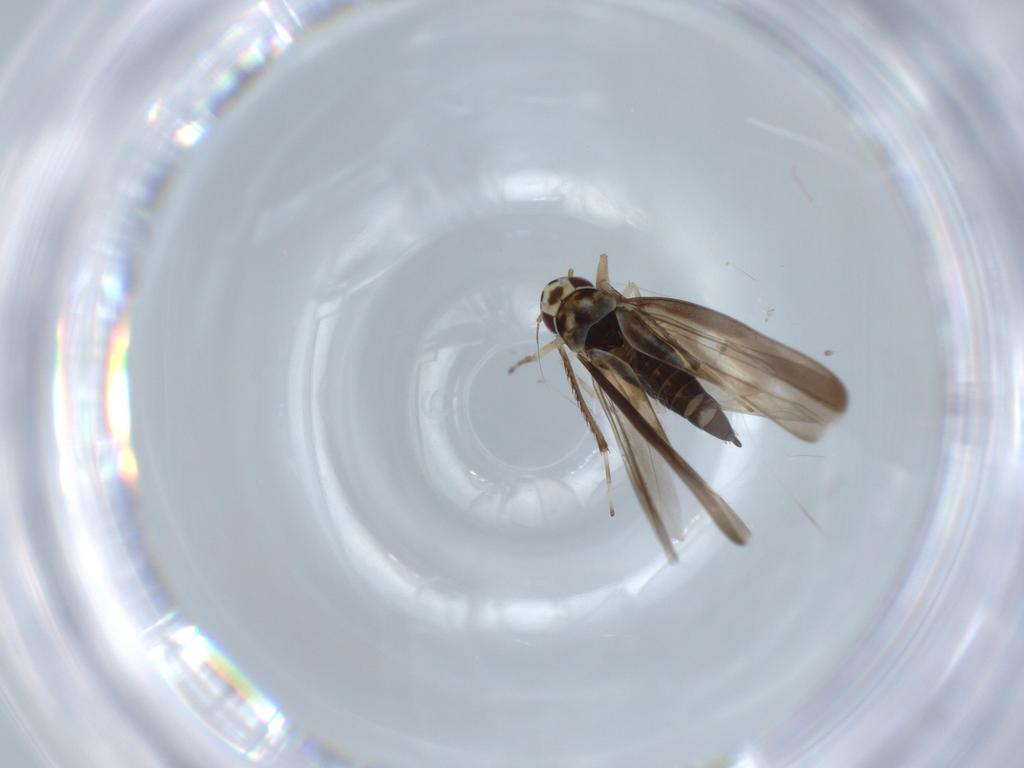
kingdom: Animalia
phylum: Arthropoda
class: Insecta
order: Hemiptera
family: Cicadellidae
